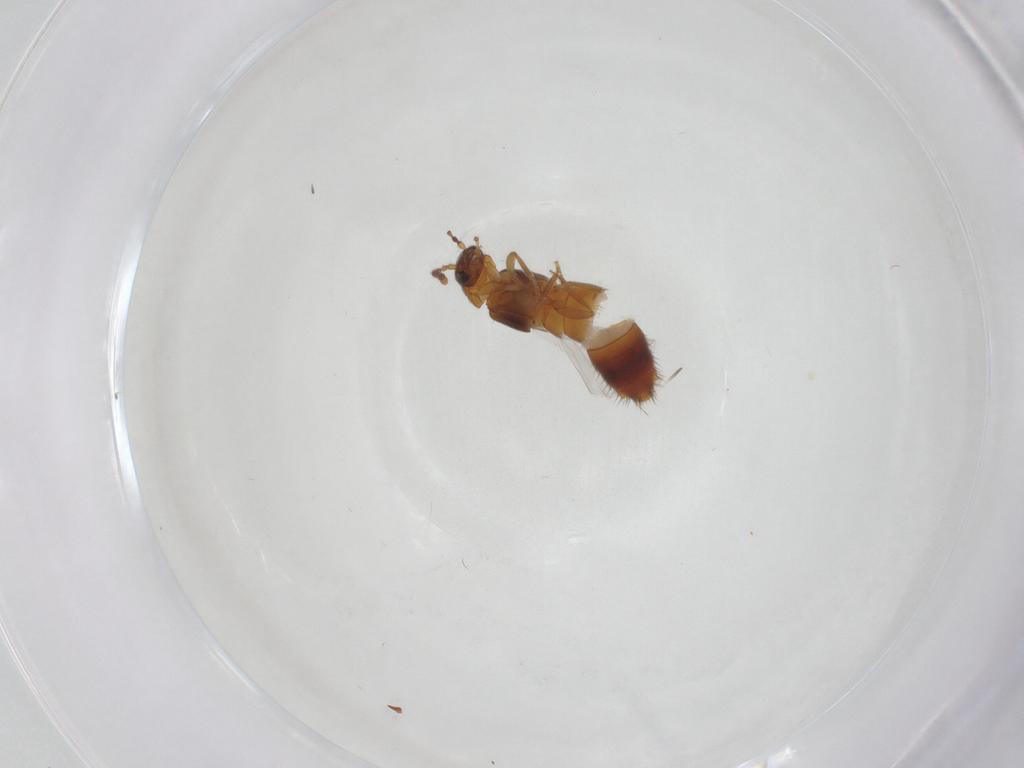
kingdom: Animalia
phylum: Arthropoda
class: Insecta
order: Coleoptera
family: Staphylinidae
